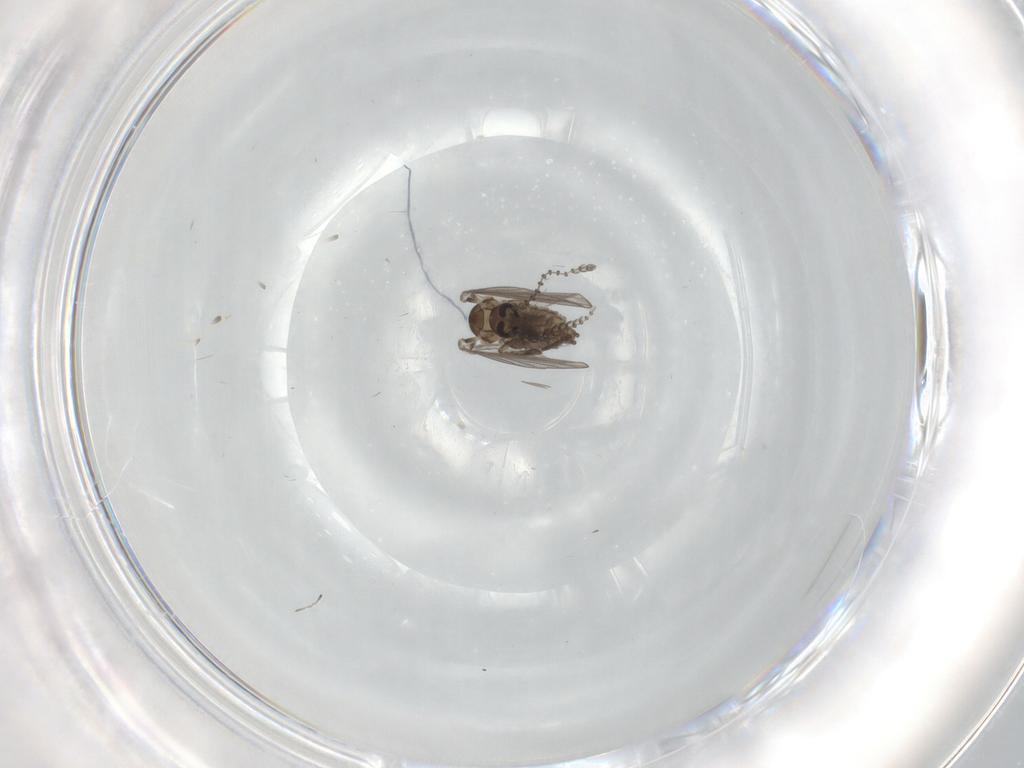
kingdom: Animalia
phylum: Arthropoda
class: Insecta
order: Diptera
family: Psychodidae
